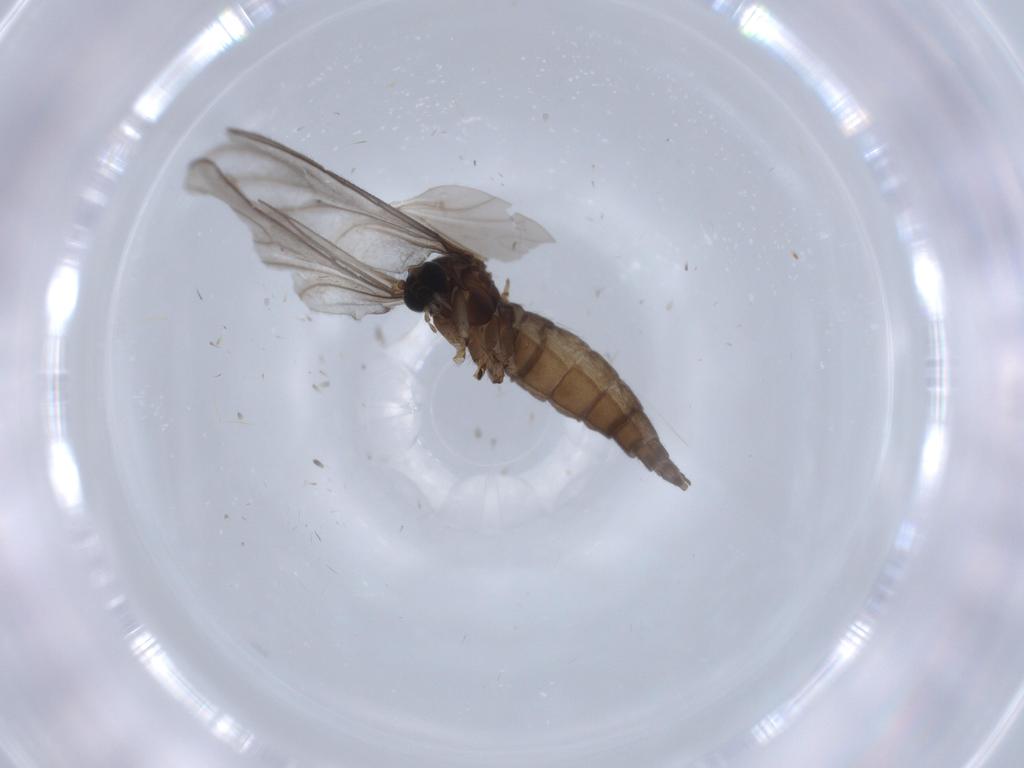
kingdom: Animalia
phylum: Arthropoda
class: Insecta
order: Diptera
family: Sciaridae
